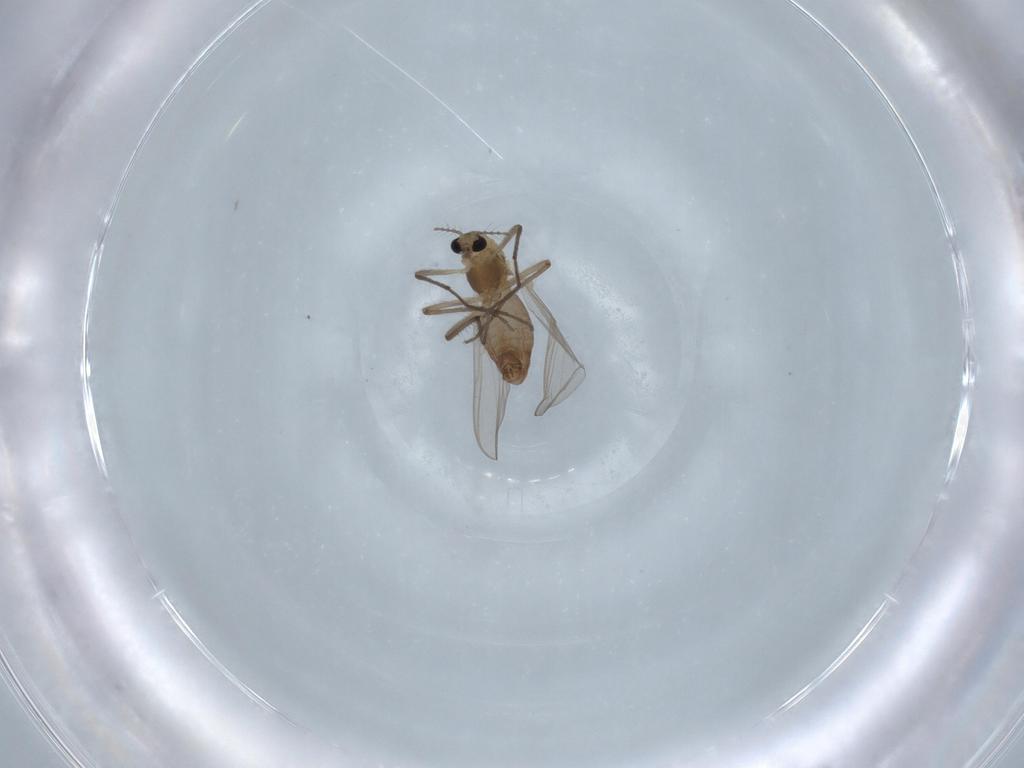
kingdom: Animalia
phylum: Arthropoda
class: Insecta
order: Diptera
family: Chironomidae
